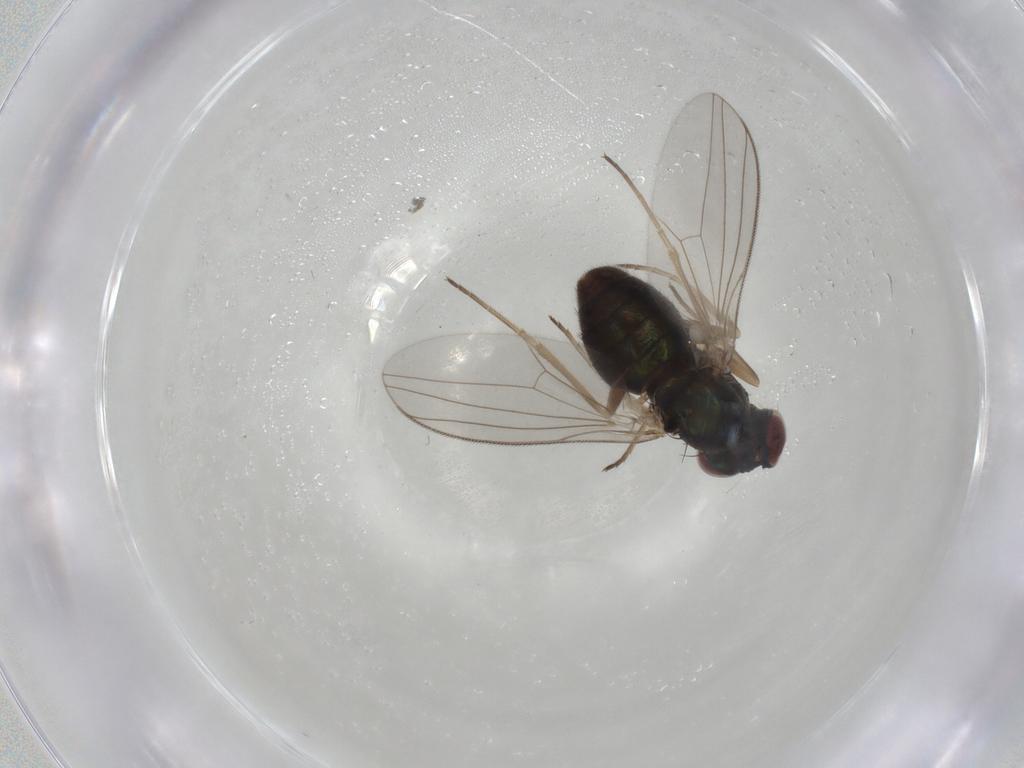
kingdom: Animalia
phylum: Arthropoda
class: Insecta
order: Diptera
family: Dolichopodidae
